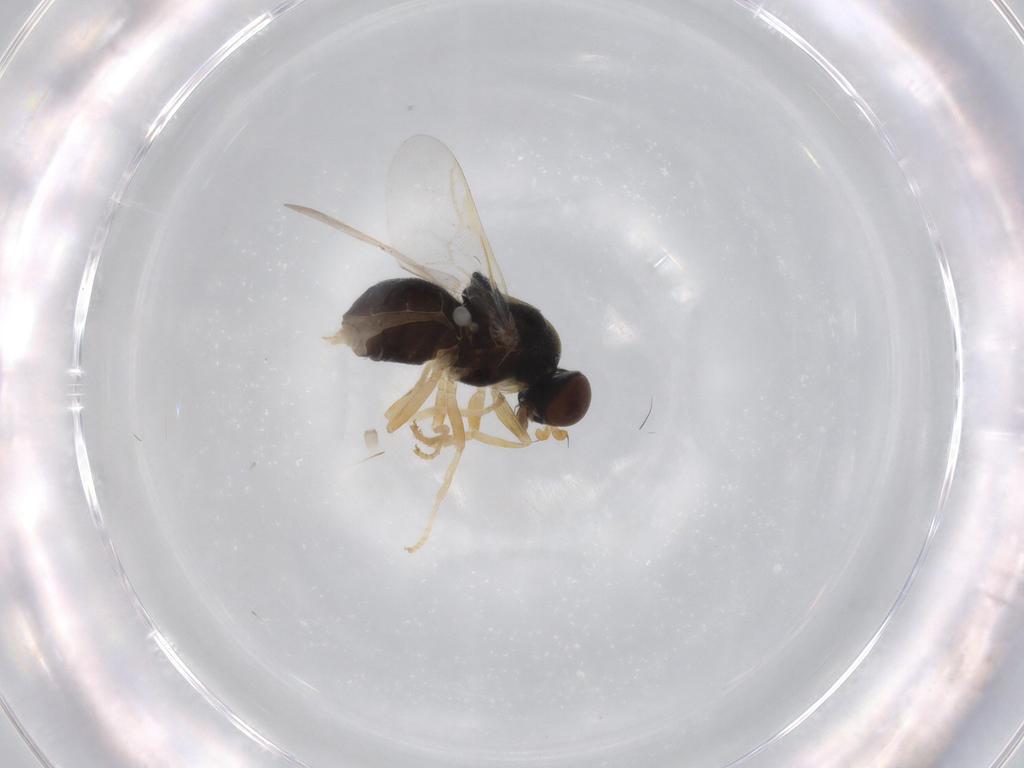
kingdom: Animalia
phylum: Arthropoda
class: Insecta
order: Diptera
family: Stratiomyidae
